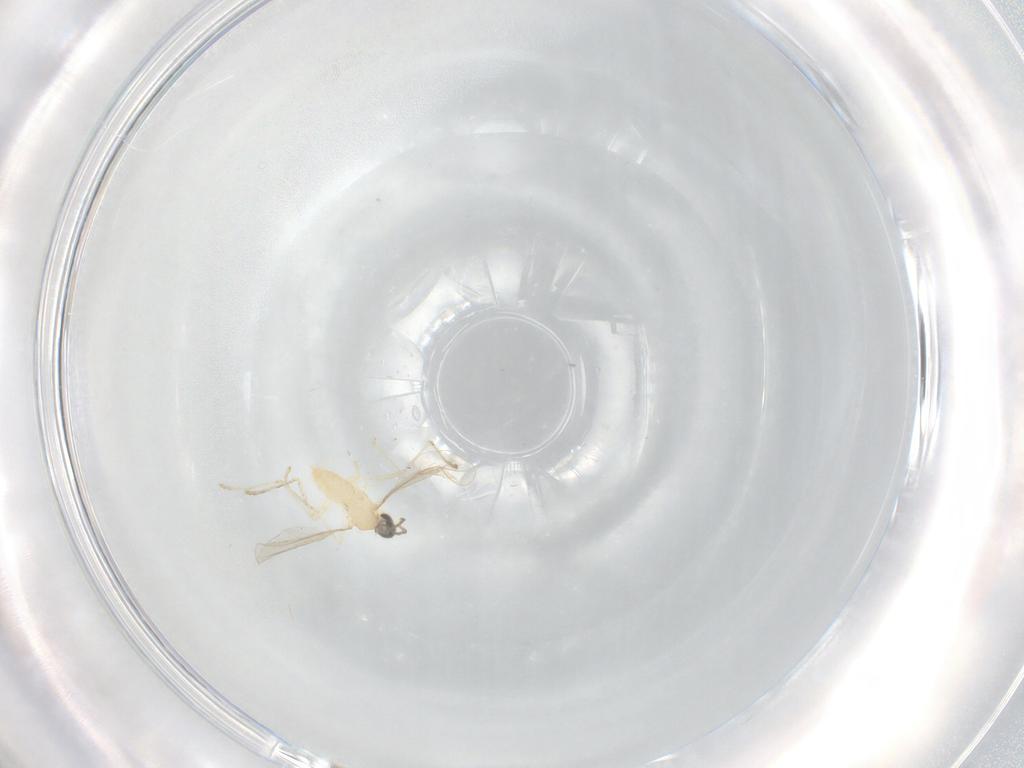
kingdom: Animalia
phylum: Arthropoda
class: Insecta
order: Diptera
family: Cecidomyiidae
